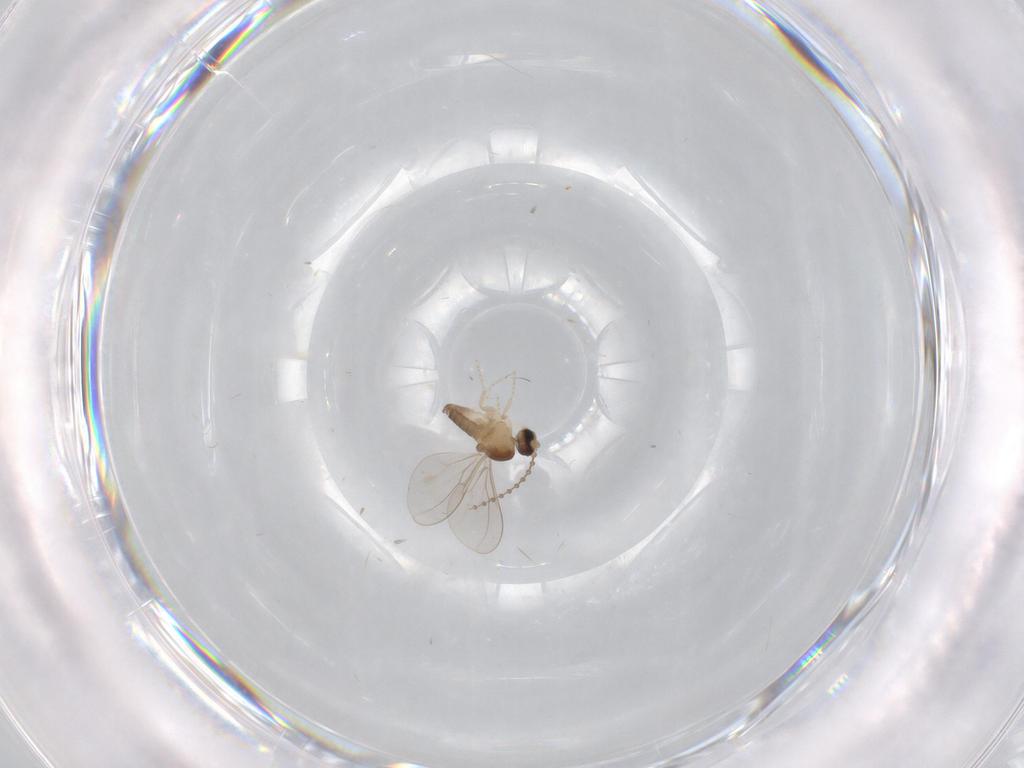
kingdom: Animalia
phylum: Arthropoda
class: Insecta
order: Diptera
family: Cecidomyiidae
